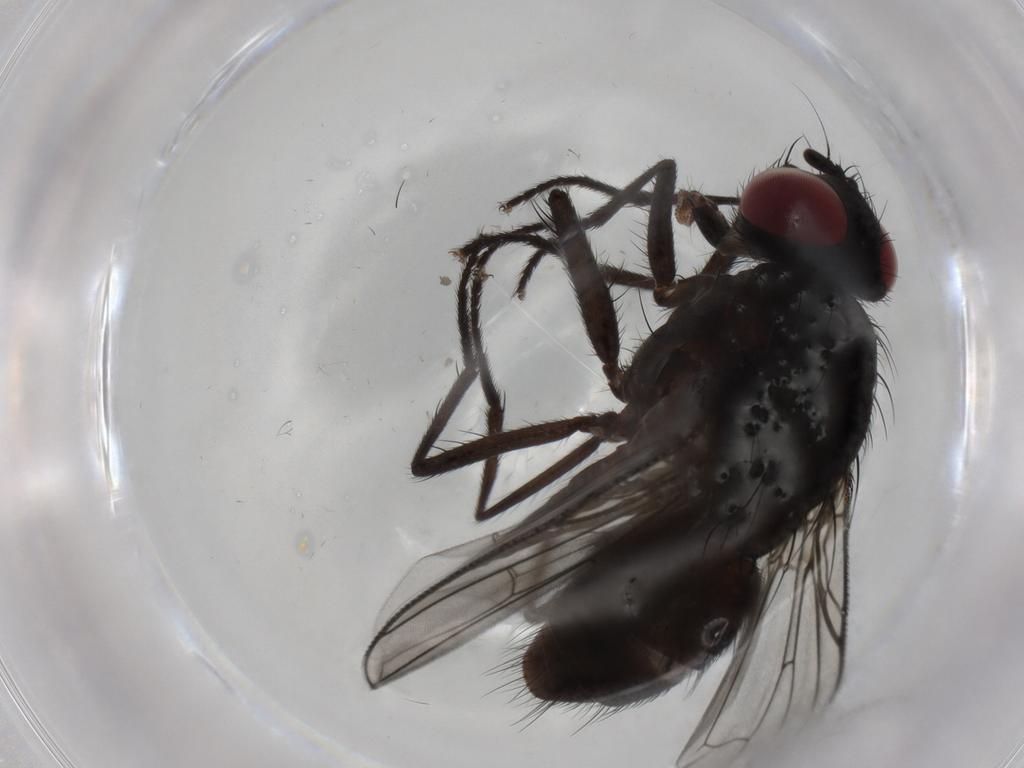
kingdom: Animalia
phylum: Arthropoda
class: Insecta
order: Diptera
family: Muscidae
